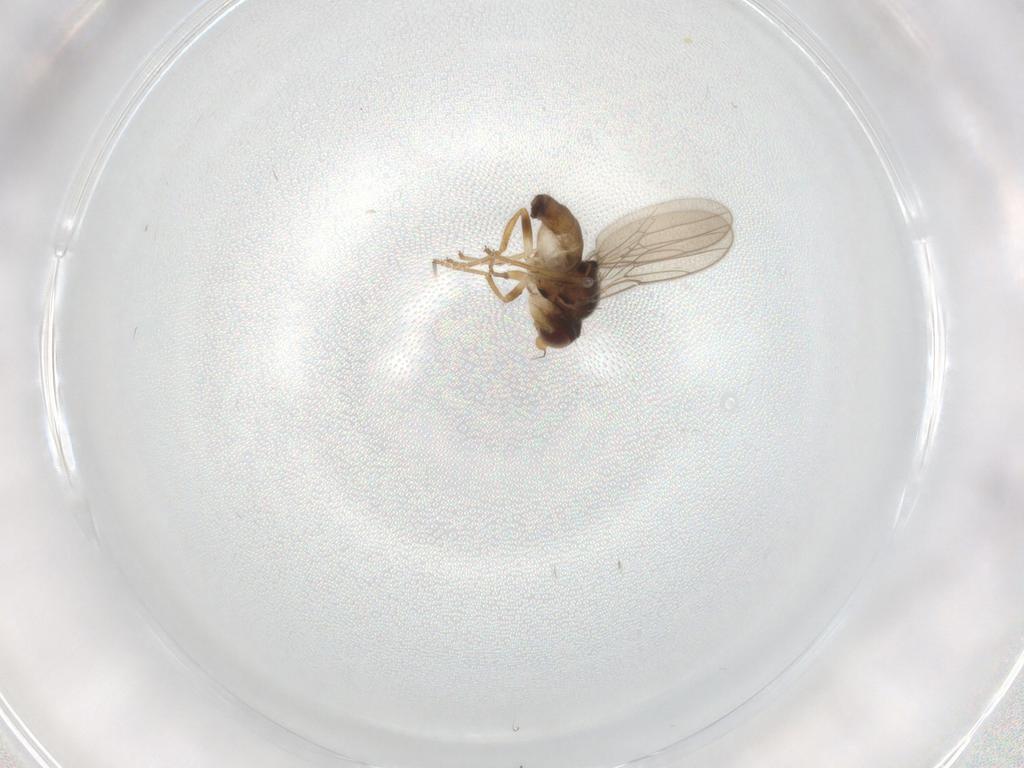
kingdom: Animalia
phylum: Arthropoda
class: Insecta
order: Diptera
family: Chloropidae
